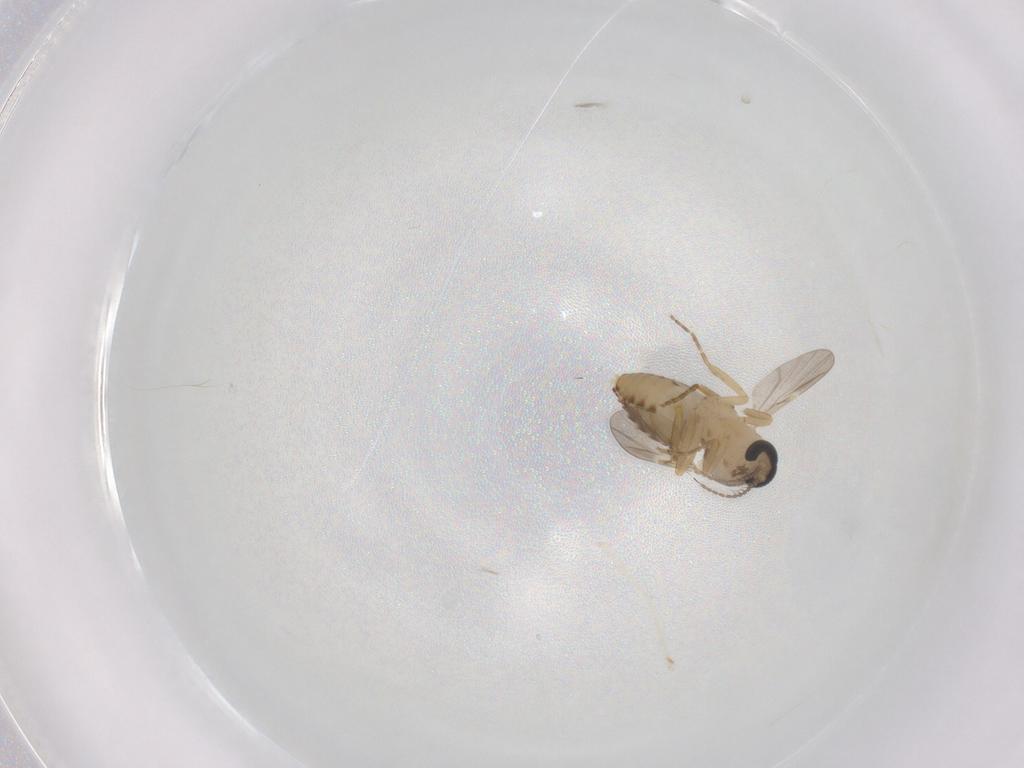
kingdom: Animalia
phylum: Arthropoda
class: Insecta
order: Diptera
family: Ceratopogonidae
